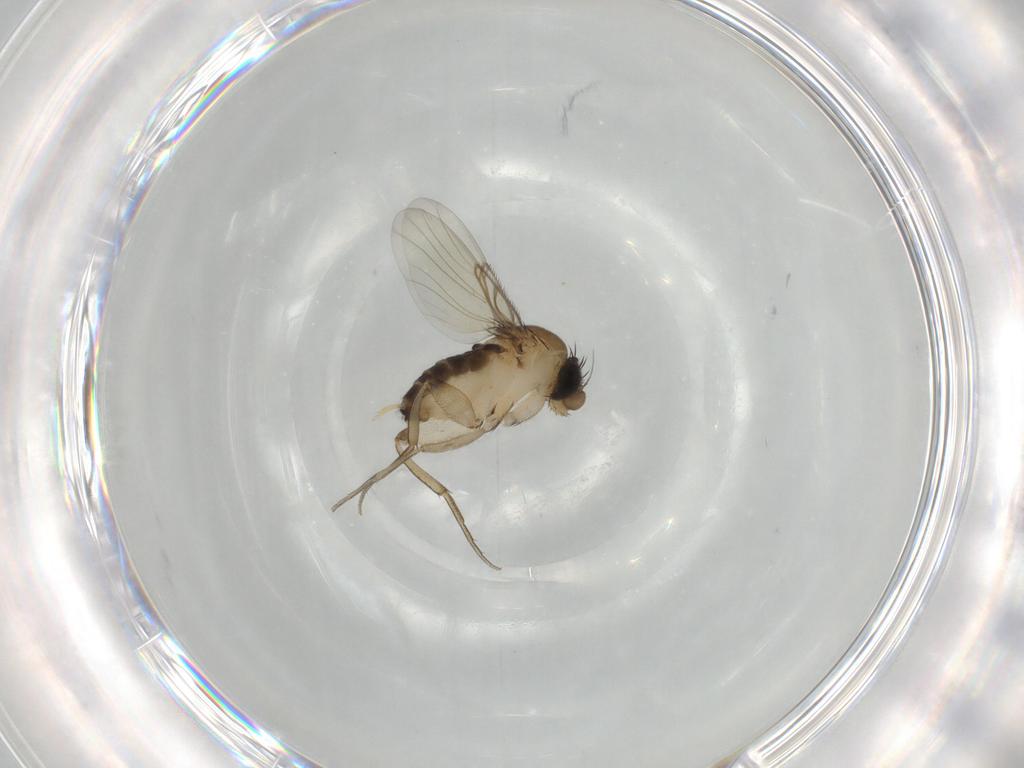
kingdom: Animalia
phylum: Arthropoda
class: Insecta
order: Diptera
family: Phoridae
